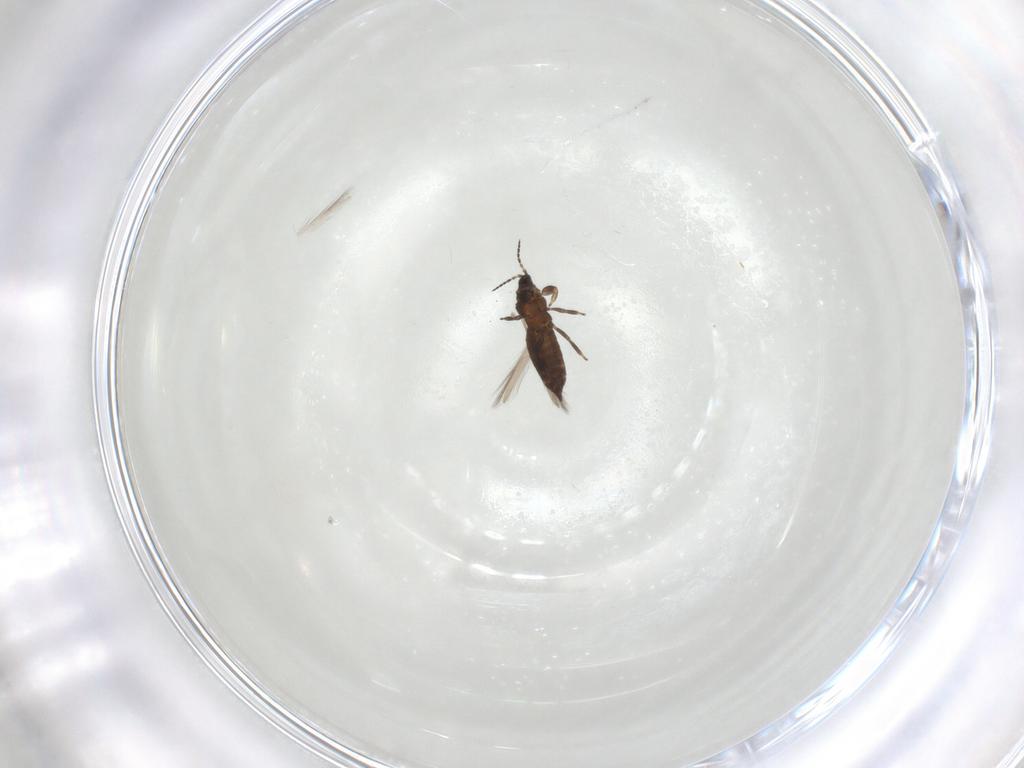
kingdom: Animalia
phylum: Arthropoda
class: Insecta
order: Thysanoptera
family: Heterothripidae
